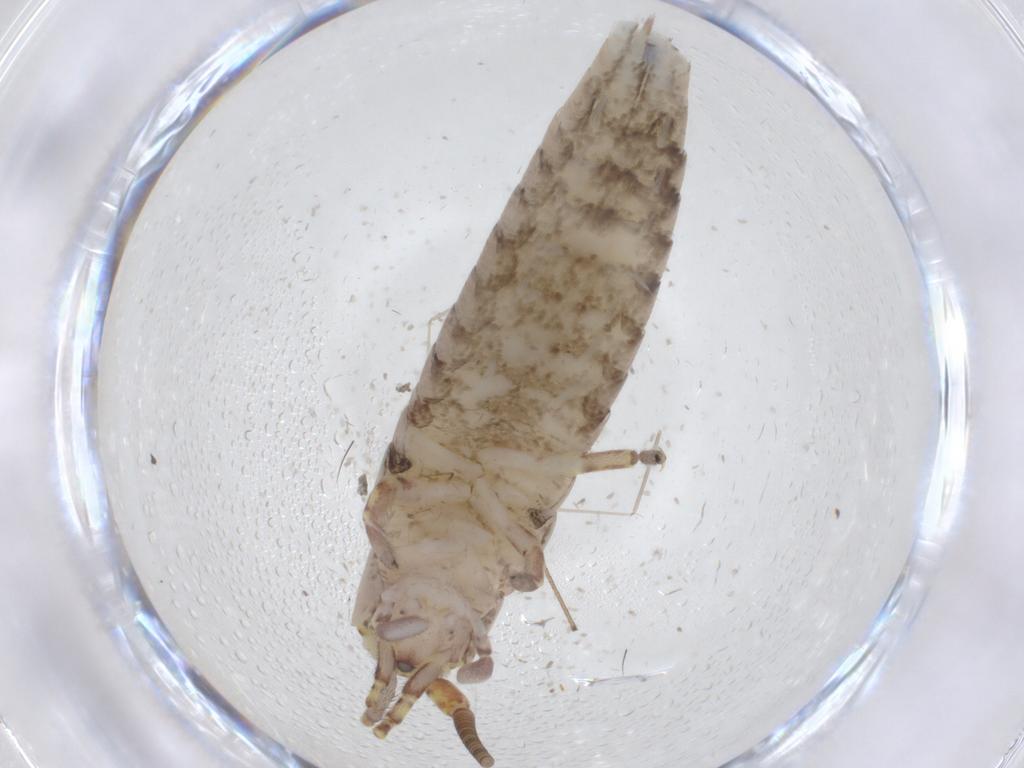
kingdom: Animalia
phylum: Arthropoda
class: Insecta
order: Archaeognatha
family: Machilidae
